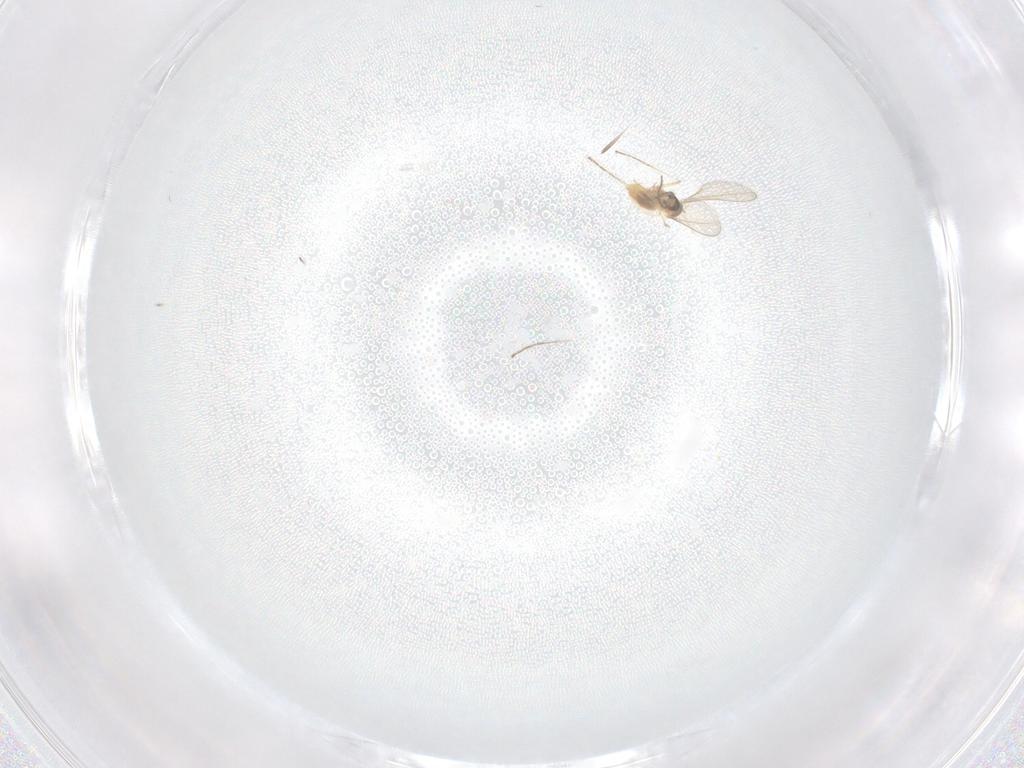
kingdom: Animalia
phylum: Arthropoda
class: Insecta
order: Diptera
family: Cecidomyiidae
